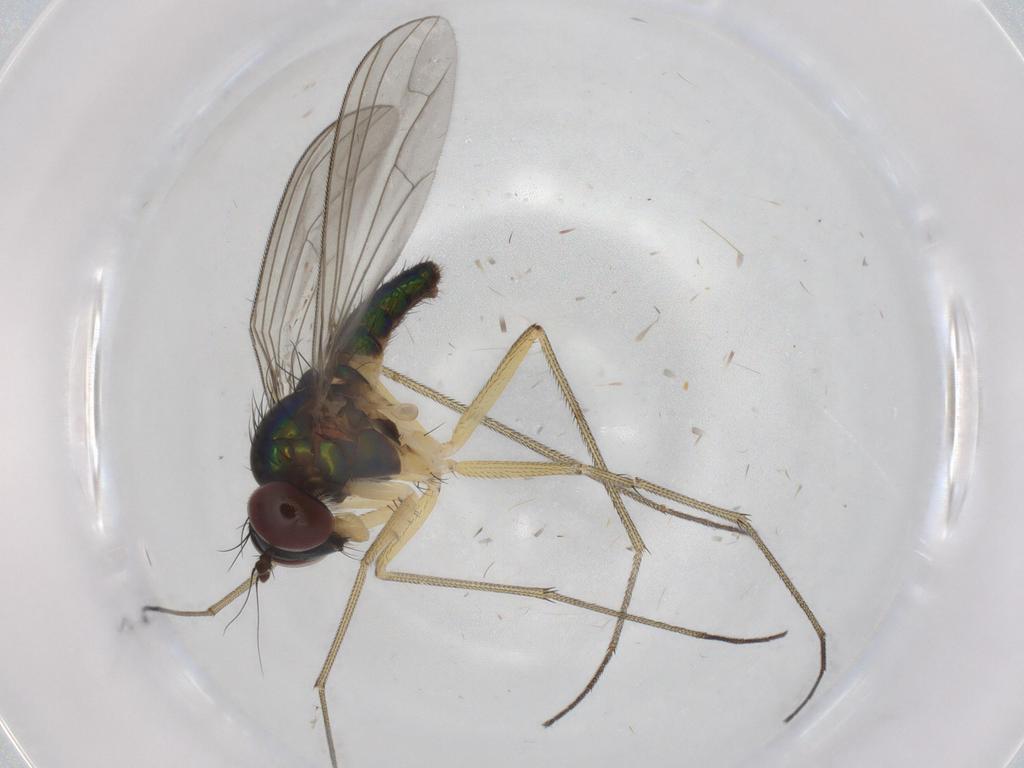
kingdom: Animalia
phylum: Arthropoda
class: Insecta
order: Diptera
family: Dolichopodidae
